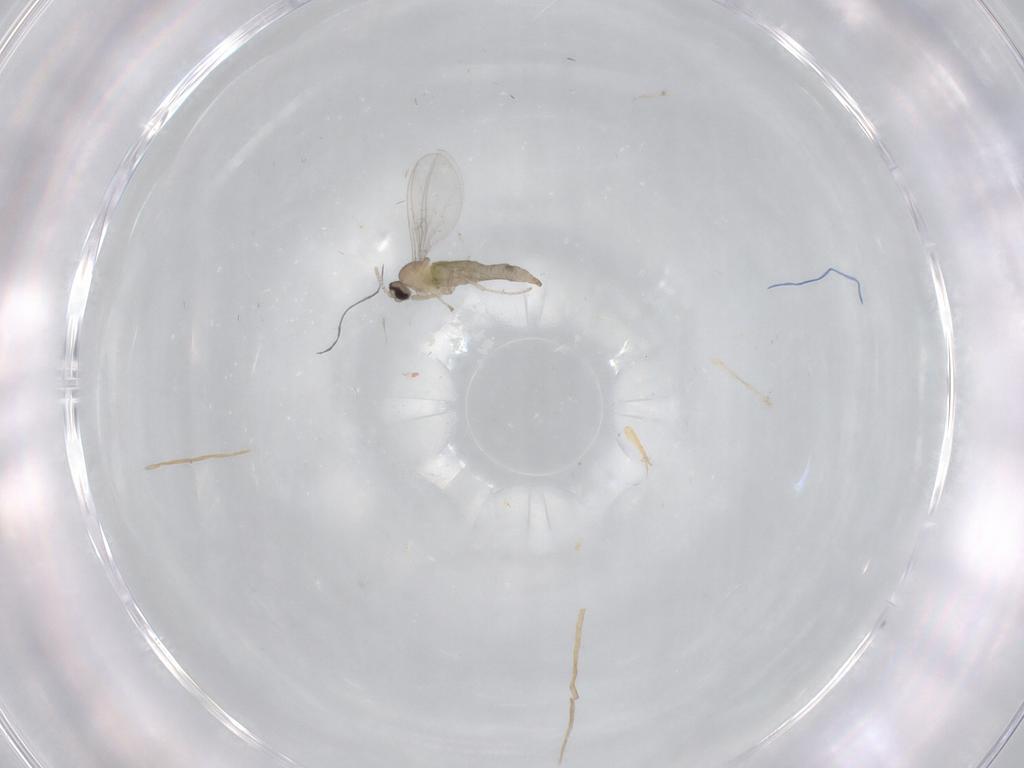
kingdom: Animalia
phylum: Arthropoda
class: Insecta
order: Diptera
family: Cecidomyiidae
